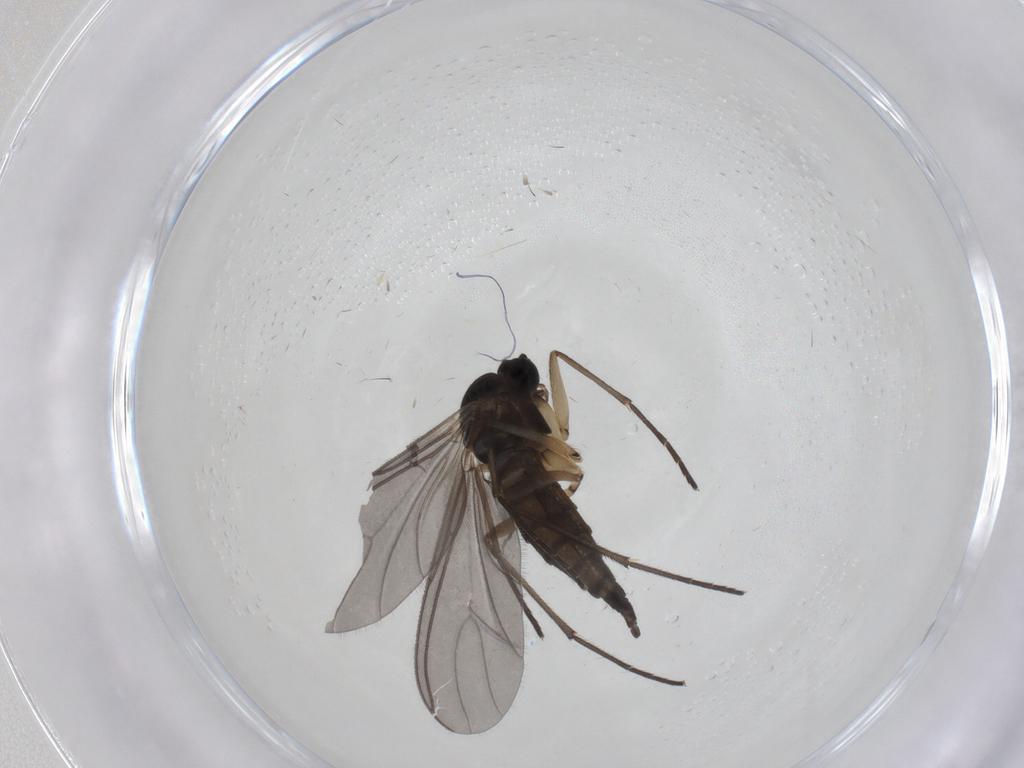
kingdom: Animalia
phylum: Arthropoda
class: Insecta
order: Diptera
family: Sciaridae
